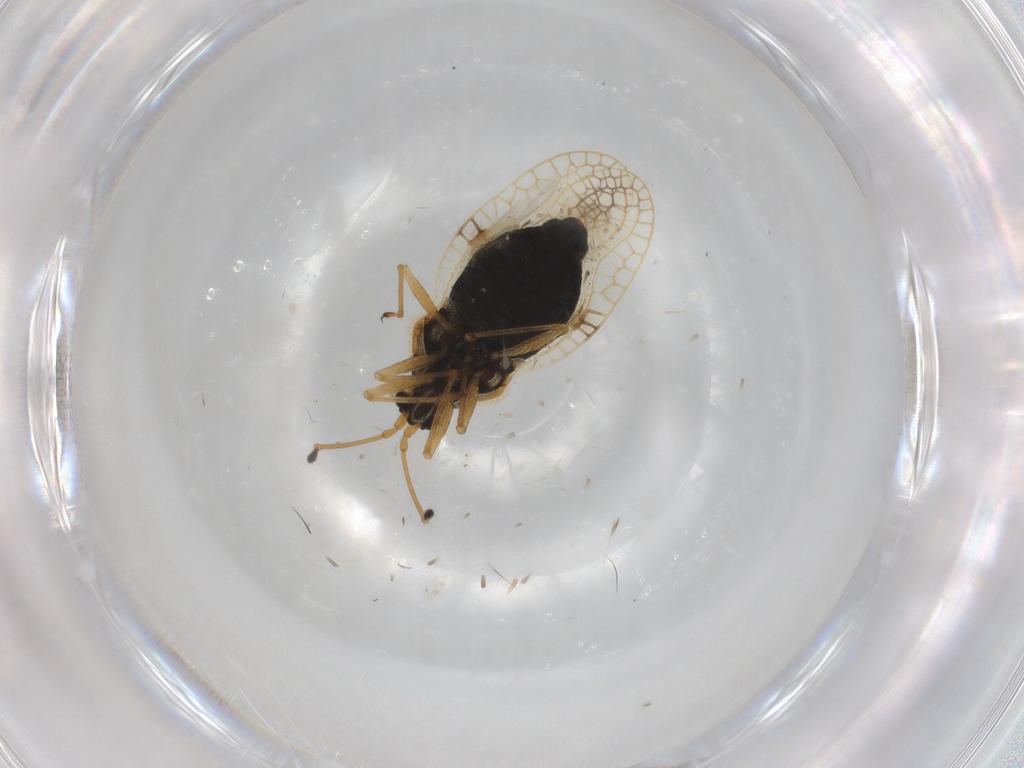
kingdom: Animalia
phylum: Arthropoda
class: Insecta
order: Hemiptera
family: Tingidae
